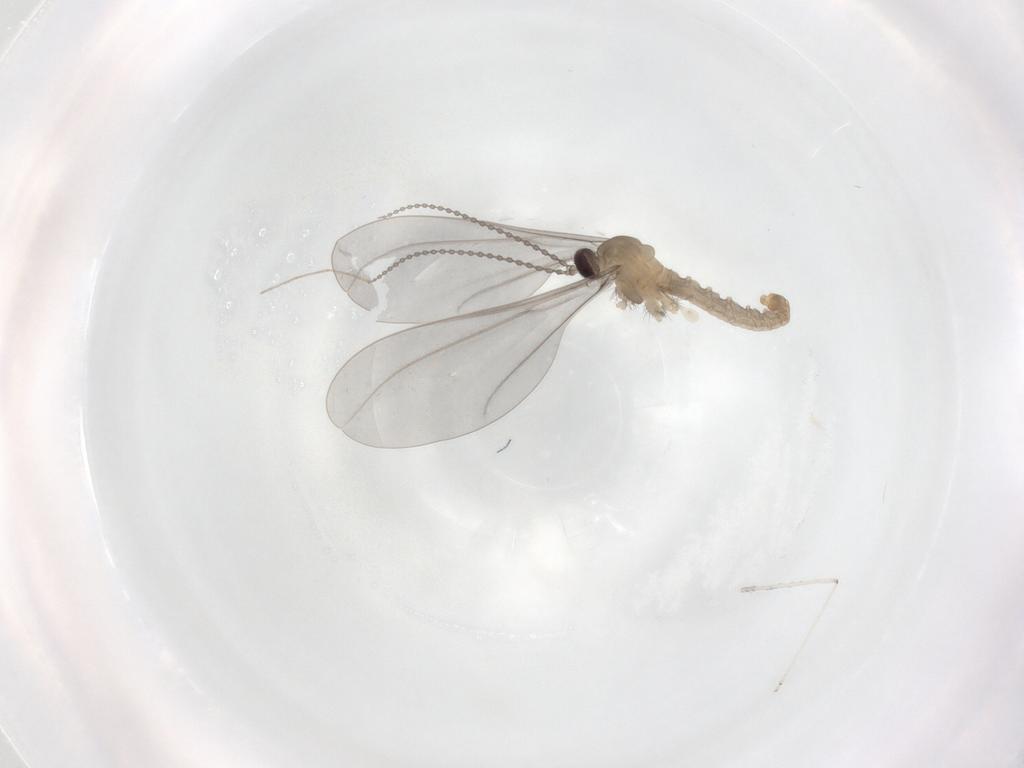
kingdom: Animalia
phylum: Arthropoda
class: Insecta
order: Diptera
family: Cecidomyiidae
